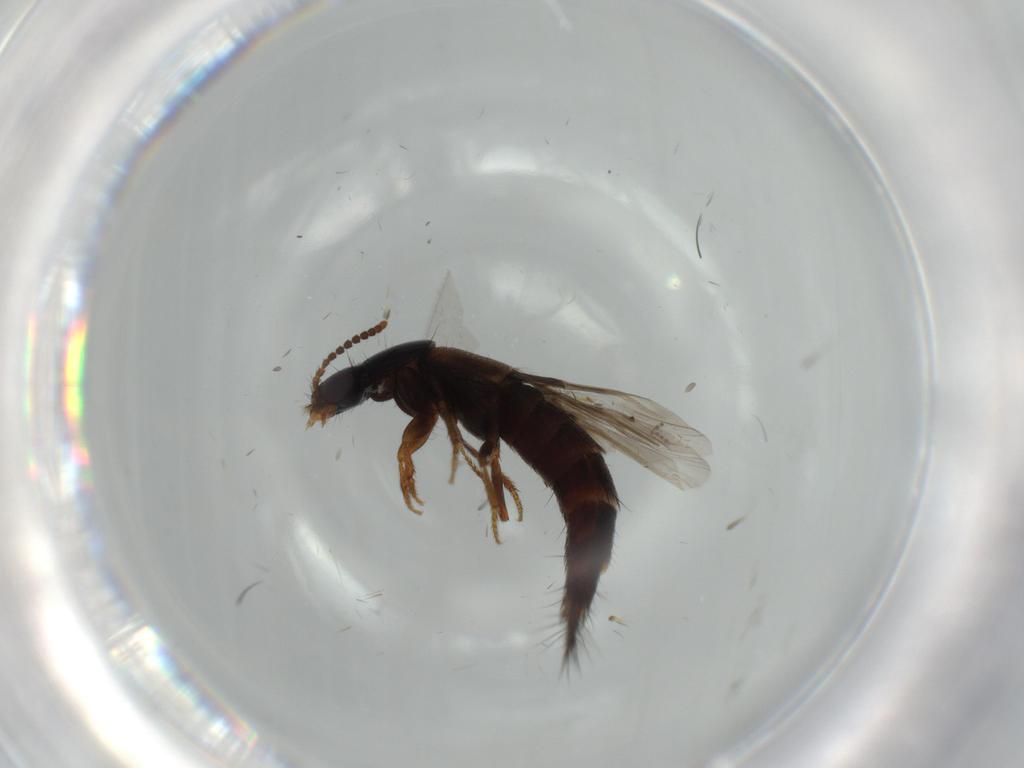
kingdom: Animalia
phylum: Arthropoda
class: Insecta
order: Coleoptera
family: Staphylinidae
